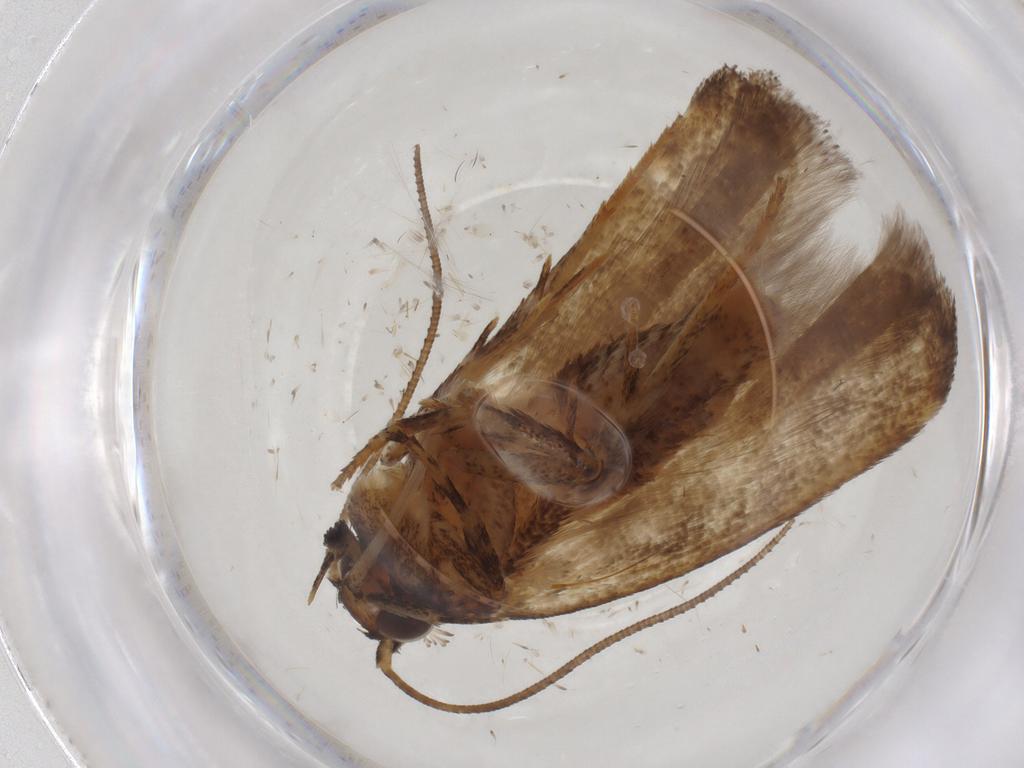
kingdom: Animalia
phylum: Arthropoda
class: Insecta
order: Lepidoptera
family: Gelechiidae
